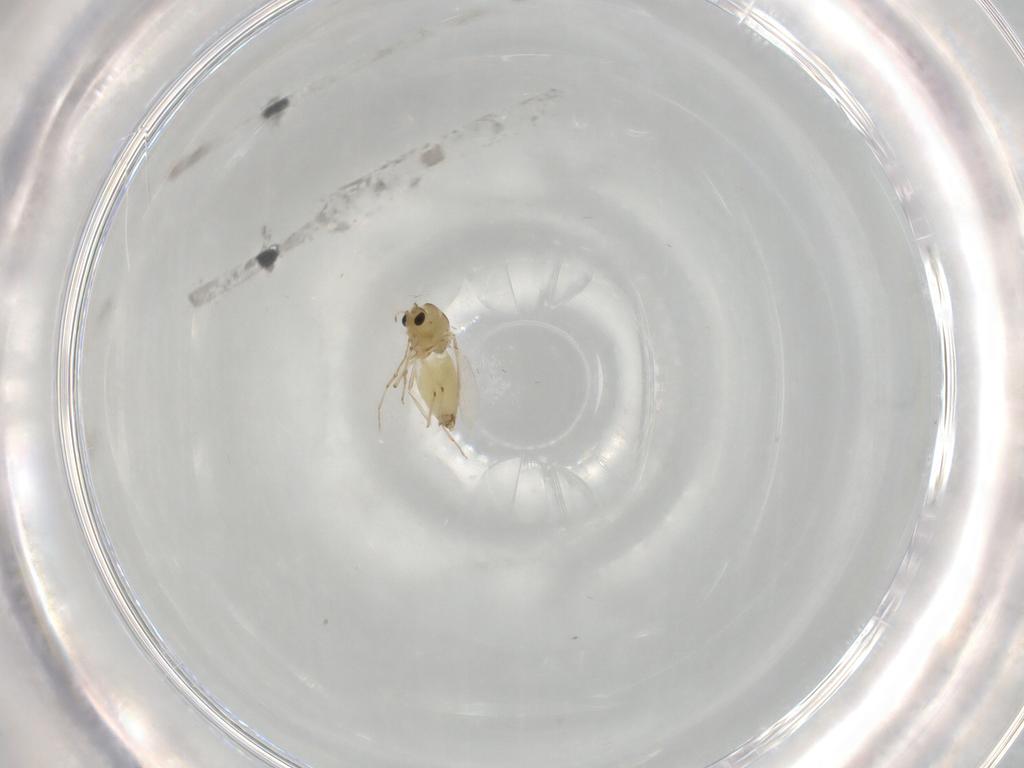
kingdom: Animalia
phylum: Arthropoda
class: Insecta
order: Diptera
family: Chironomidae
